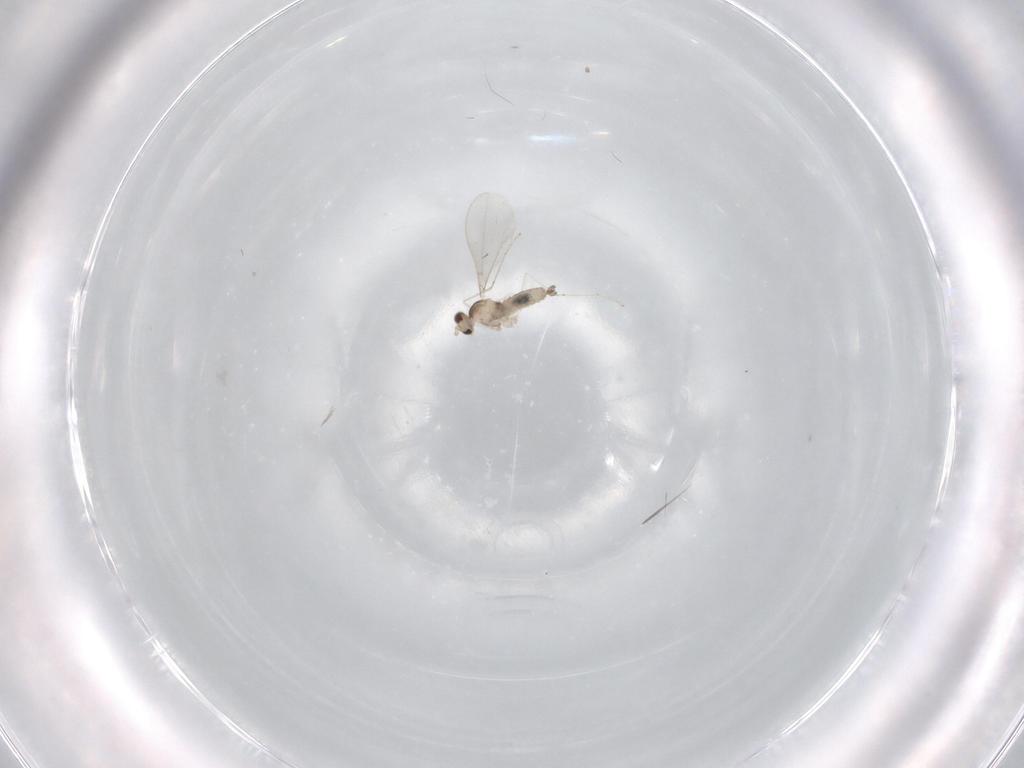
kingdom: Animalia
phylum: Arthropoda
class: Insecta
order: Diptera
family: Cecidomyiidae
